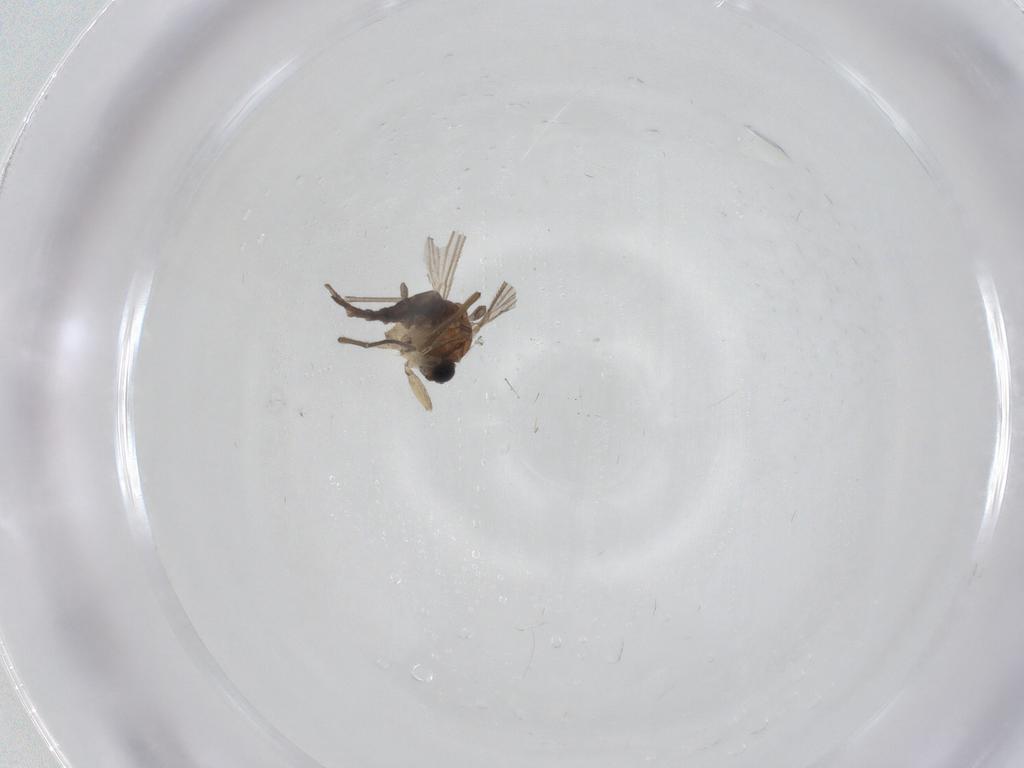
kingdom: Animalia
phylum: Arthropoda
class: Insecta
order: Diptera
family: Sciaridae
